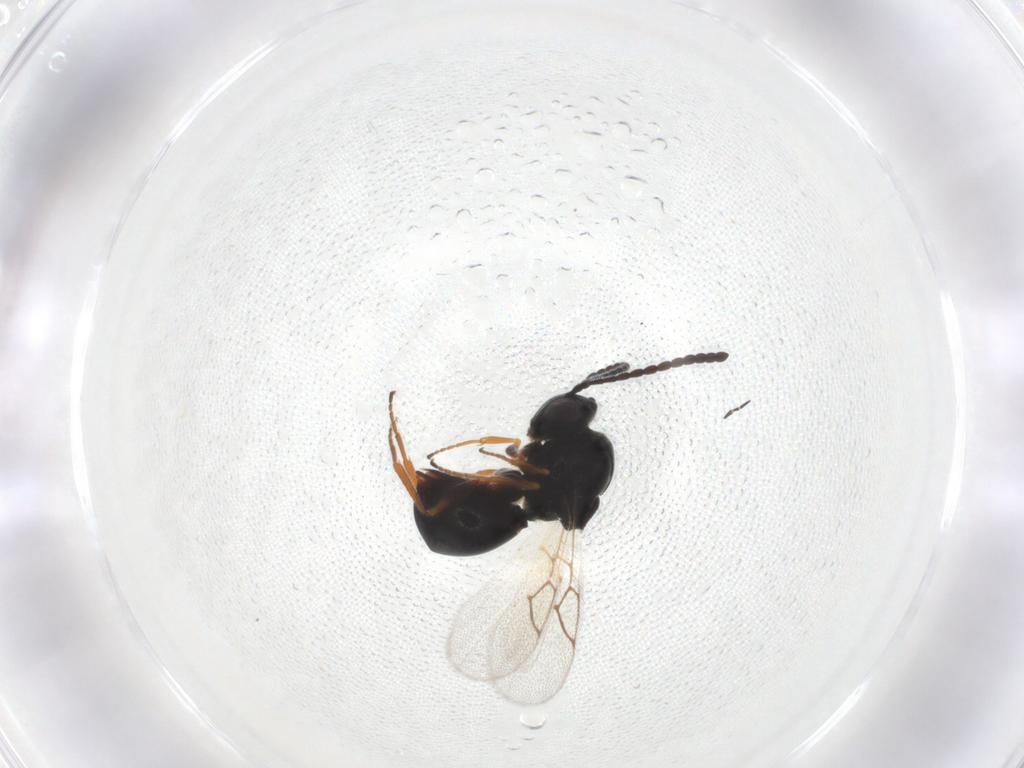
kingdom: Animalia
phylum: Arthropoda
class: Insecta
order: Hymenoptera
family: Figitidae
